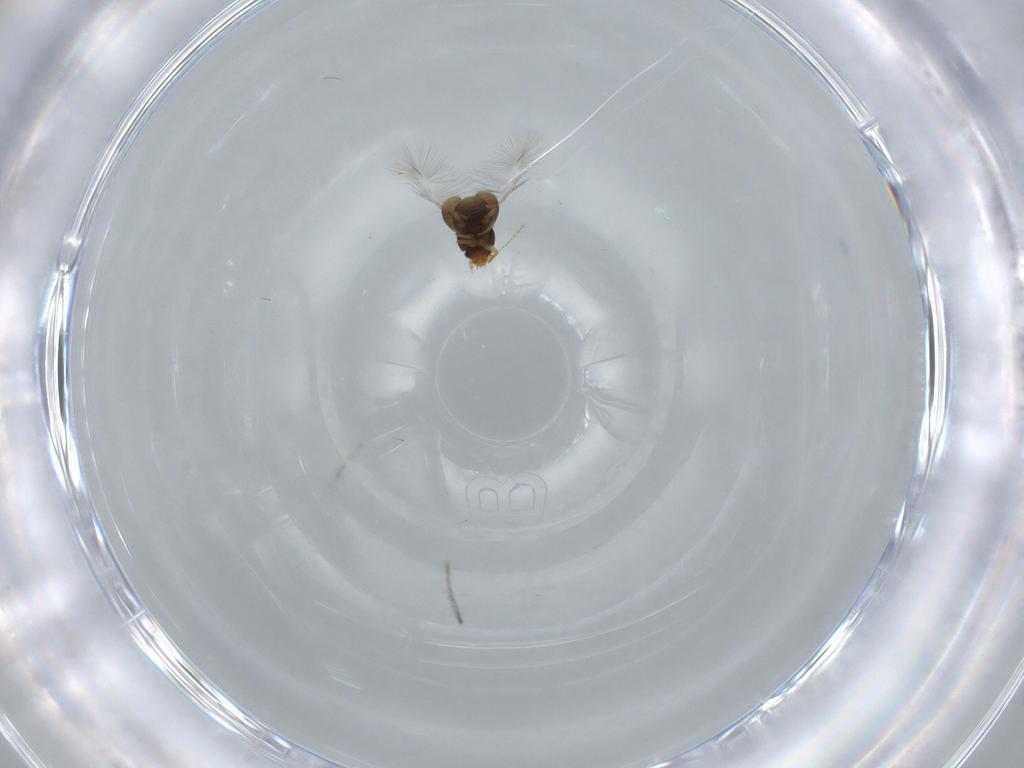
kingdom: Animalia
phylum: Arthropoda
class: Insecta
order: Coleoptera
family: Ptiliidae
